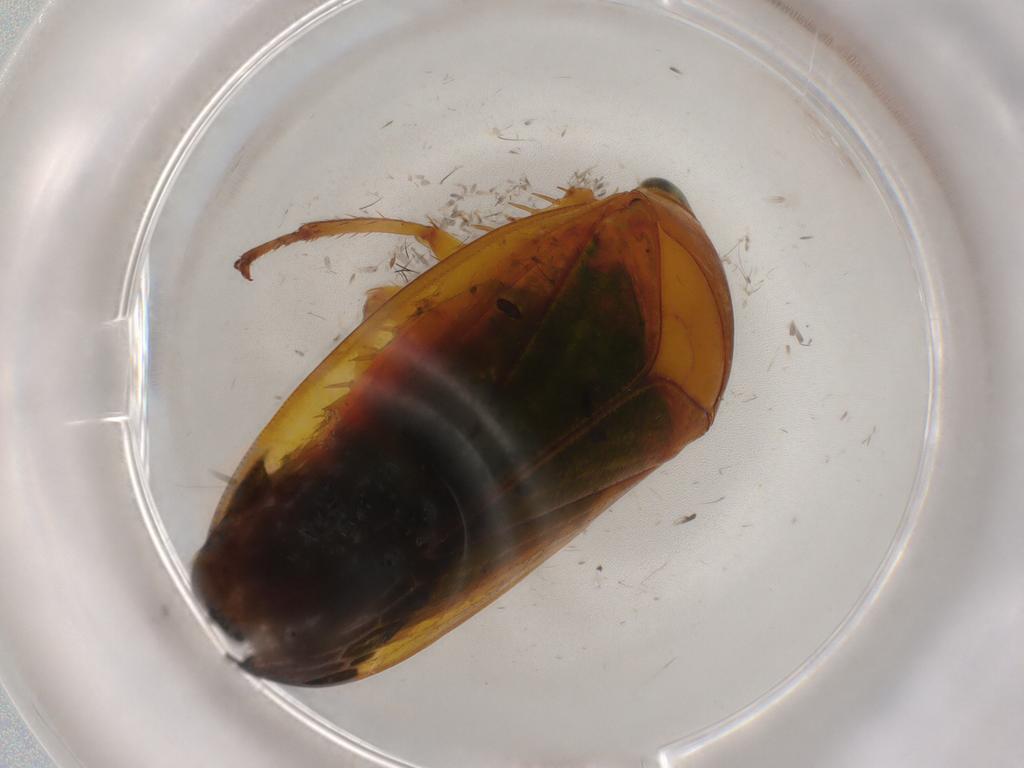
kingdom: Animalia
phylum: Arthropoda
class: Insecta
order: Hemiptera
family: Cicadellidae
